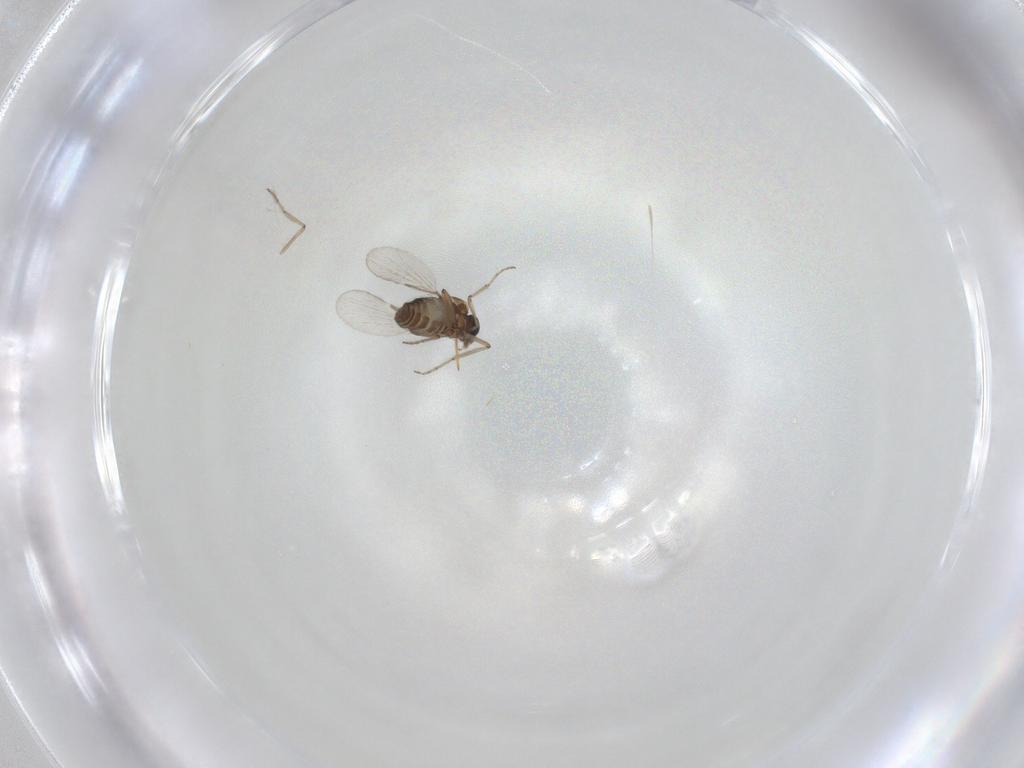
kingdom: Animalia
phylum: Arthropoda
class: Insecta
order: Diptera
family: Ceratopogonidae
